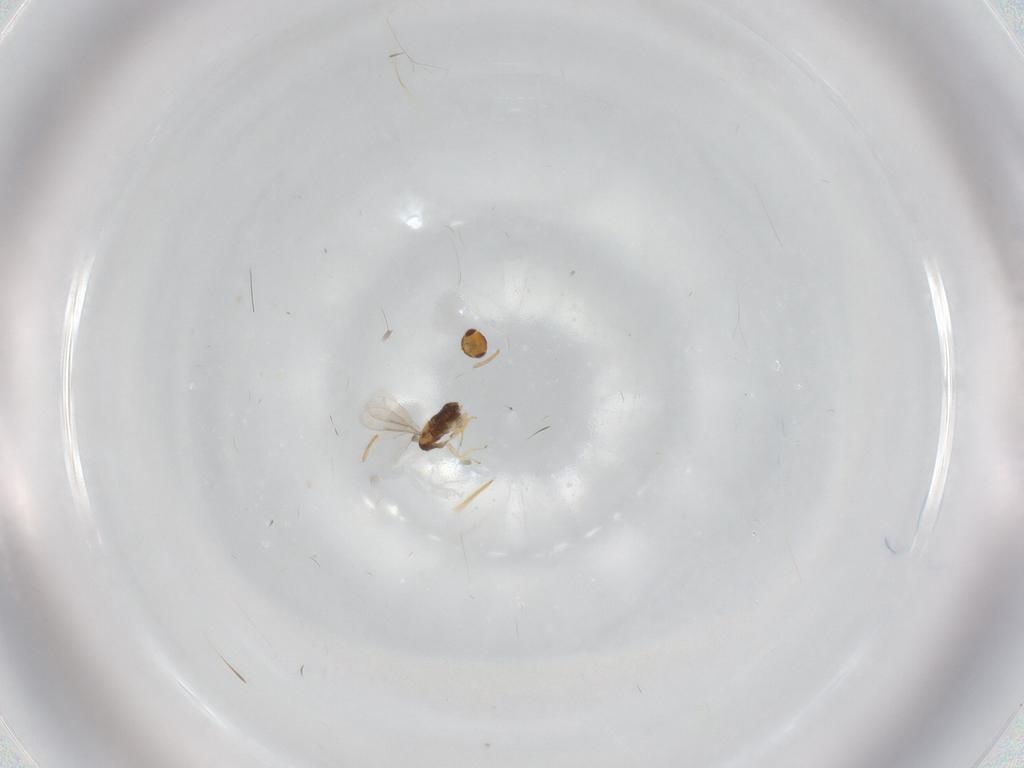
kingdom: Animalia
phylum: Arthropoda
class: Insecta
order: Hymenoptera
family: Aphelinidae
